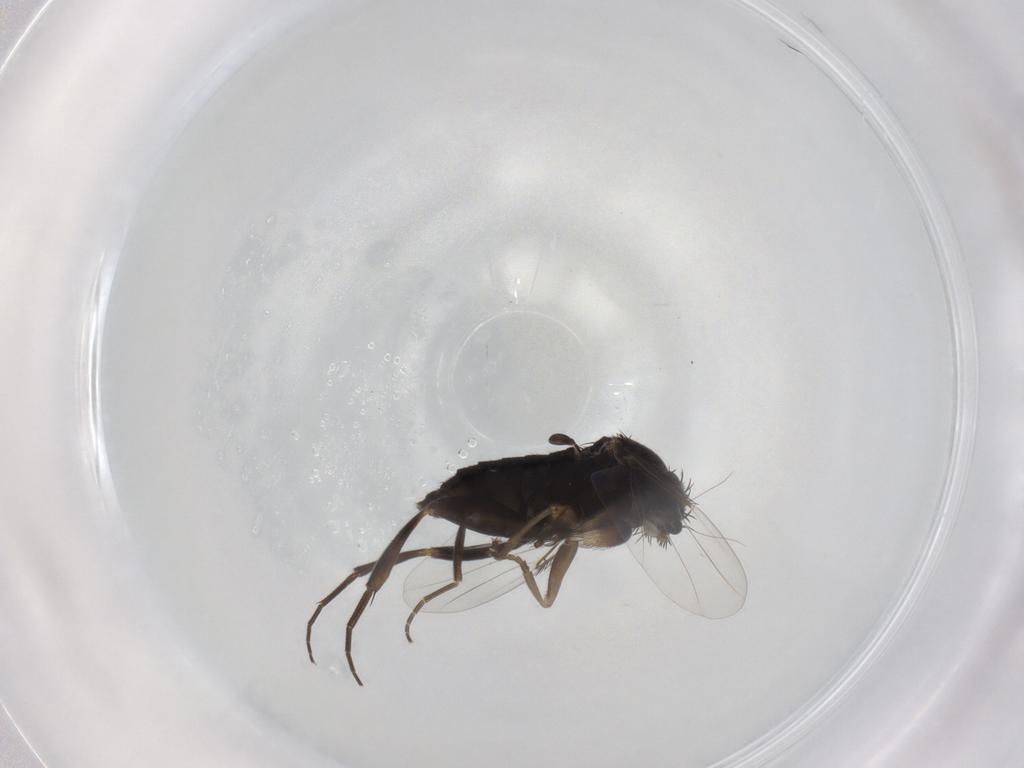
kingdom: Animalia
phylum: Arthropoda
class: Insecta
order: Diptera
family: Phoridae
